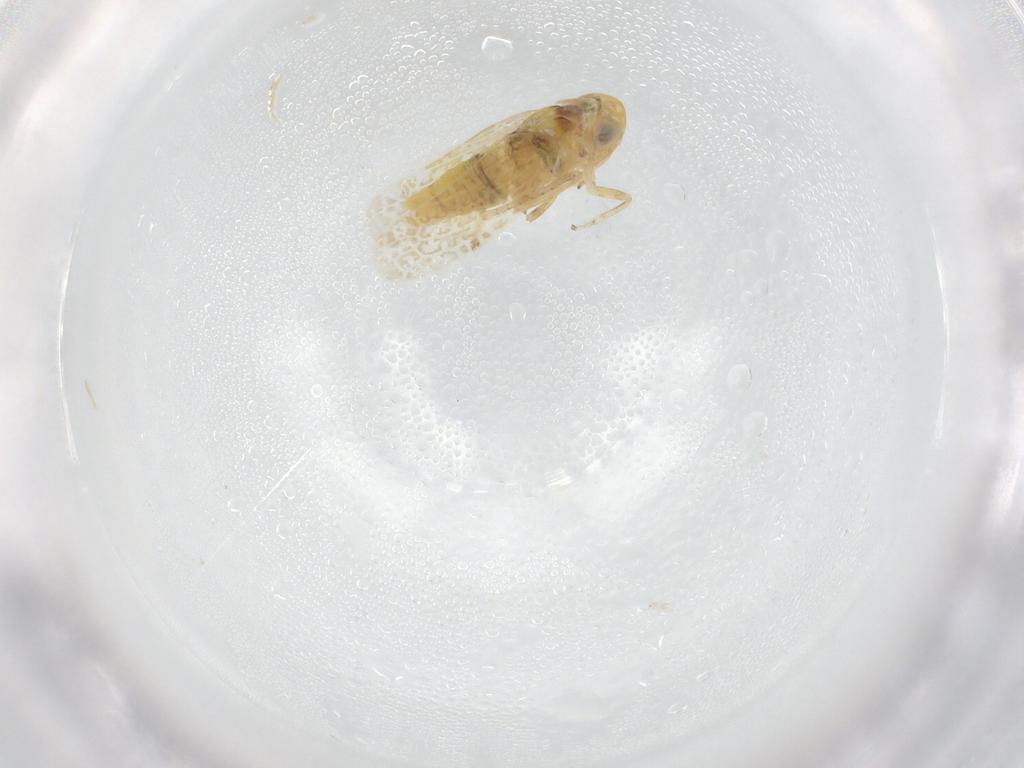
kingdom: Animalia
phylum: Arthropoda
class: Insecta
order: Hemiptera
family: Cicadellidae
